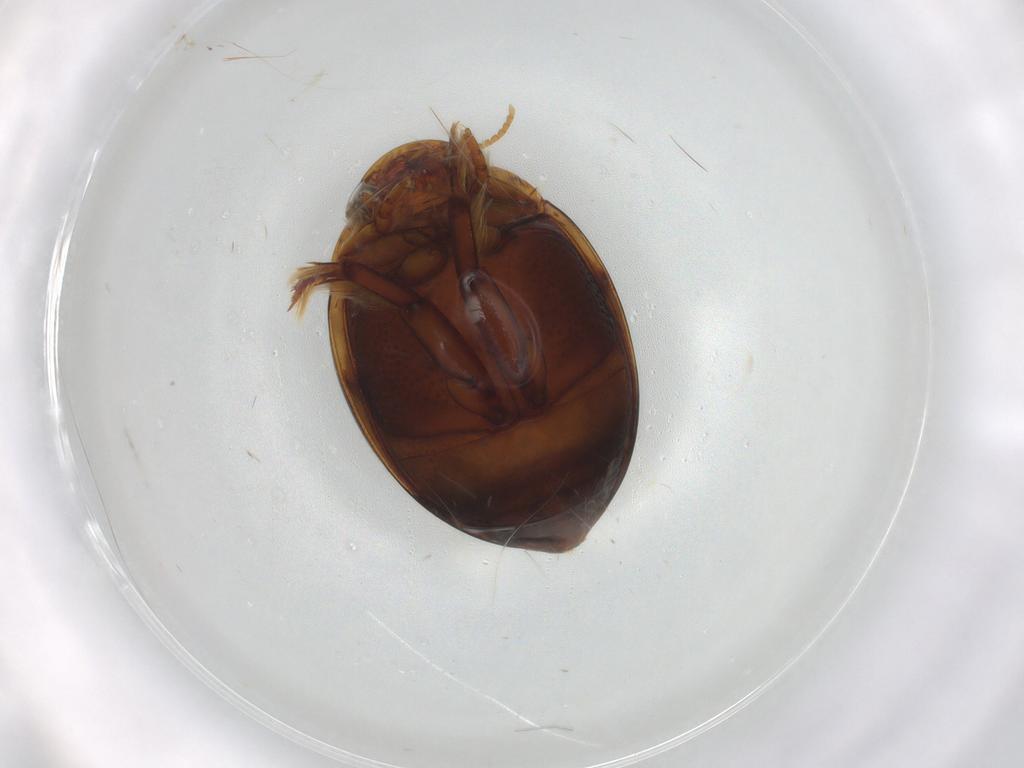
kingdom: Animalia
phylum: Arthropoda
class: Insecta
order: Coleoptera
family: Dytiscidae
